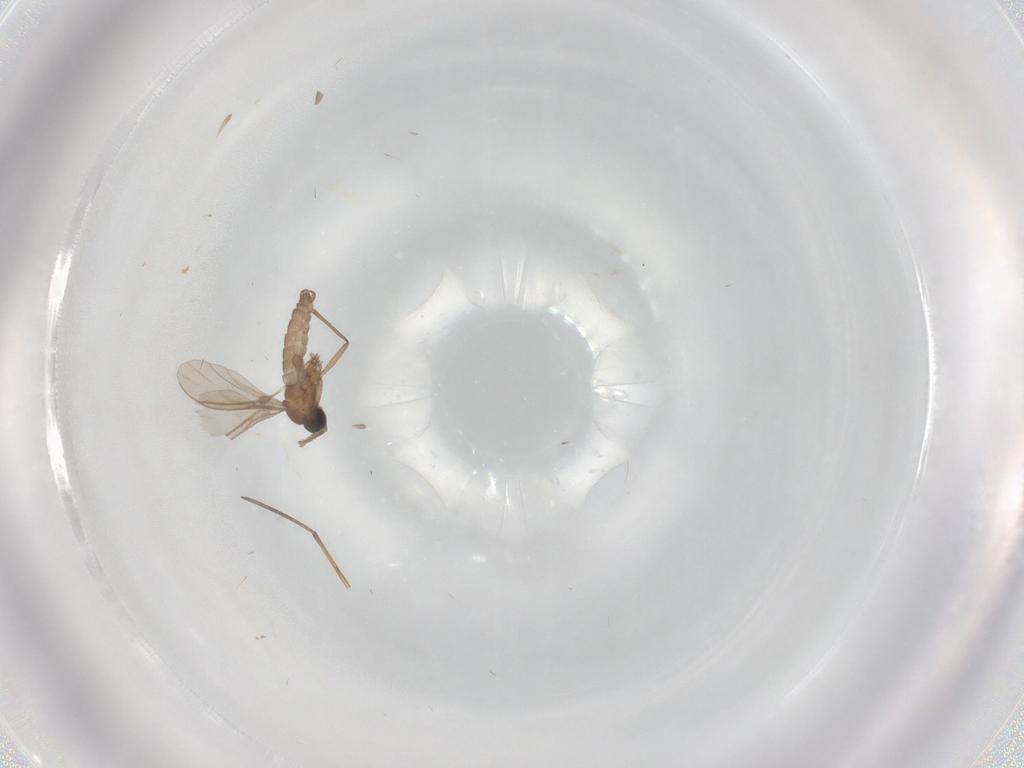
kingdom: Animalia
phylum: Arthropoda
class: Insecta
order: Diptera
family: Sciaridae
